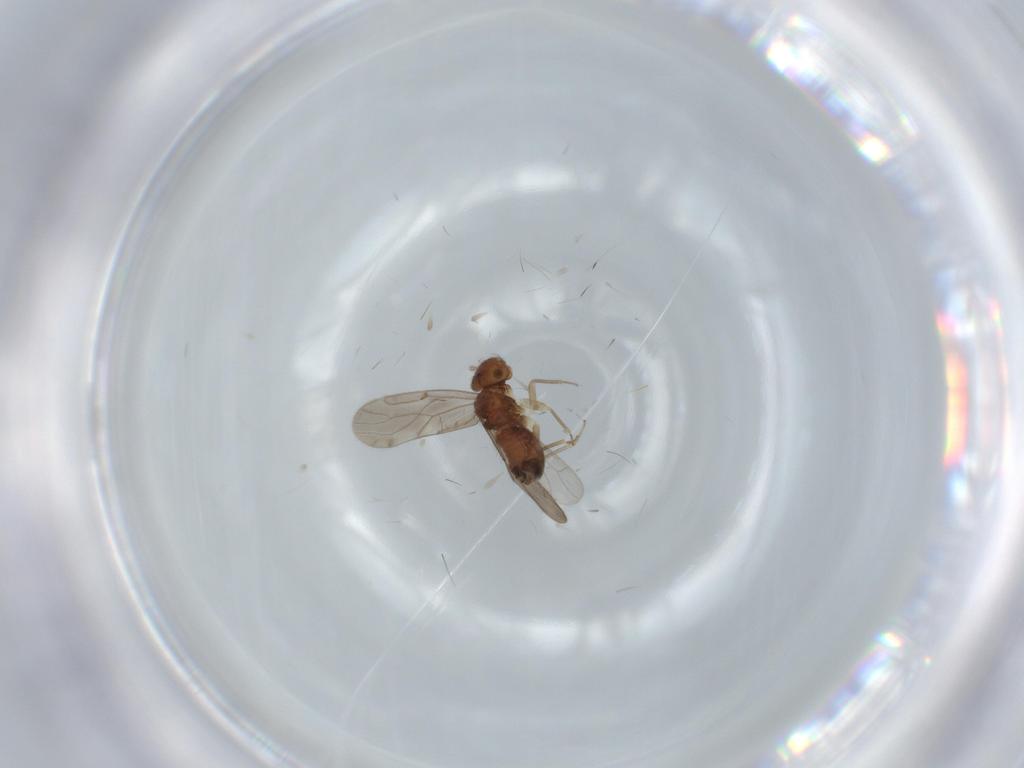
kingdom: Animalia
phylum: Arthropoda
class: Insecta
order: Psocodea
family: Ectopsocidae
